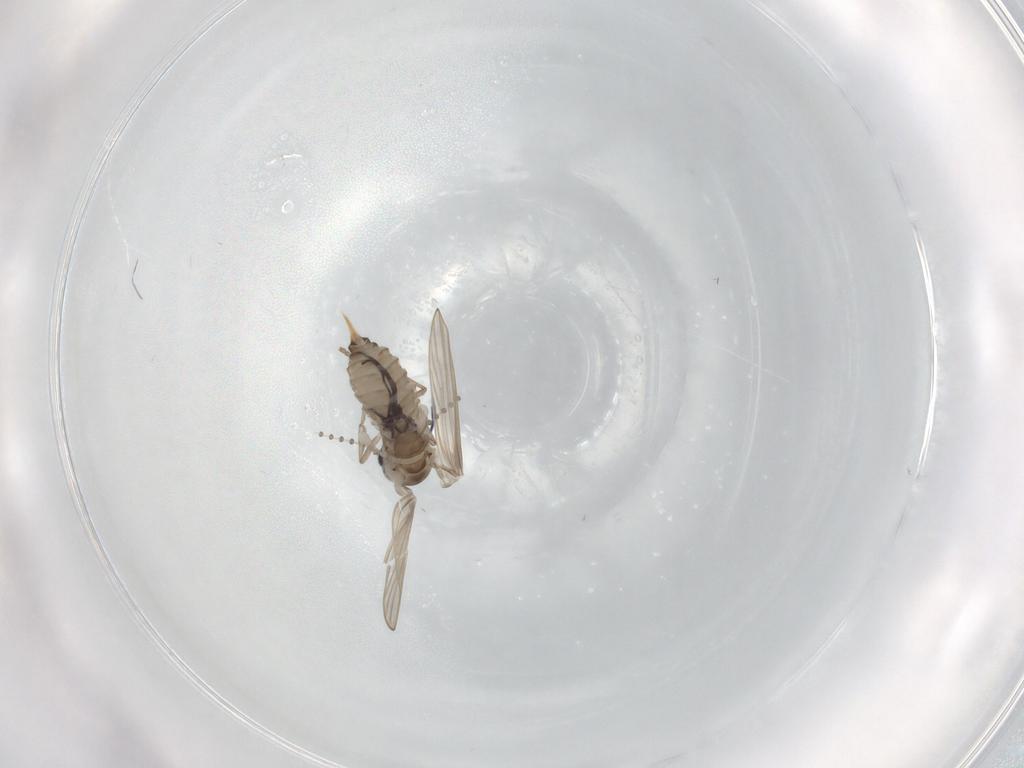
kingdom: Animalia
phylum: Arthropoda
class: Insecta
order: Diptera
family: Psychodidae
